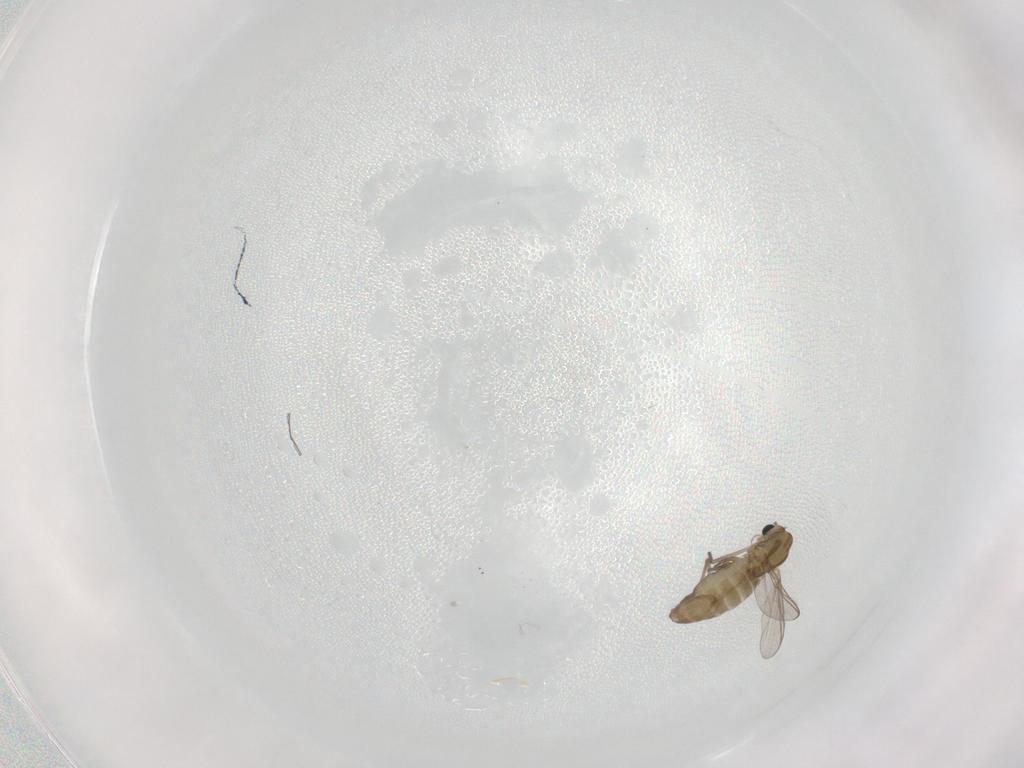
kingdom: Animalia
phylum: Arthropoda
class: Insecta
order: Diptera
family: Chironomidae
